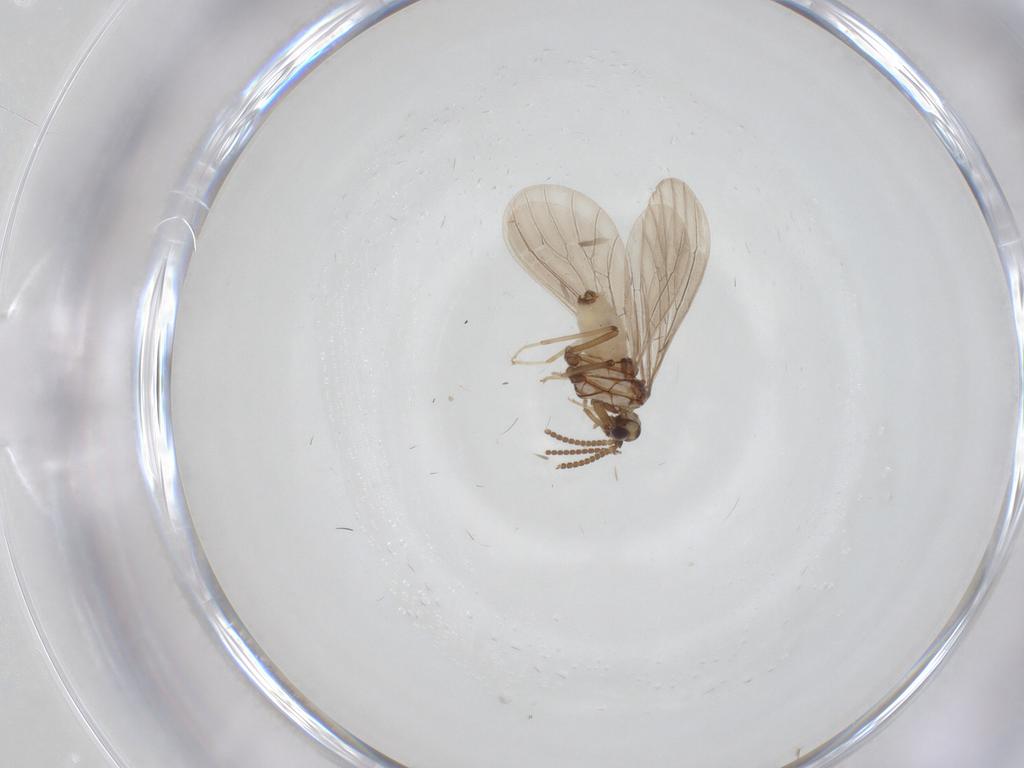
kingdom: Animalia
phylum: Arthropoda
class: Insecta
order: Neuroptera
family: Coniopterygidae
